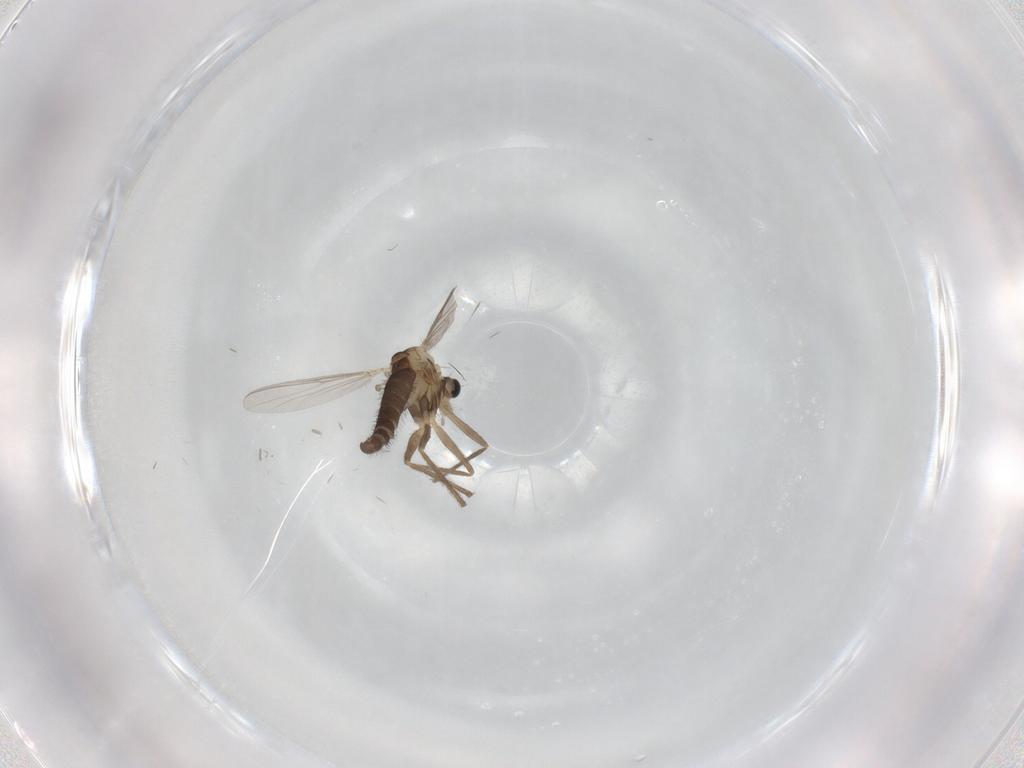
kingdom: Animalia
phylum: Arthropoda
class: Insecta
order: Diptera
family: Chironomidae
